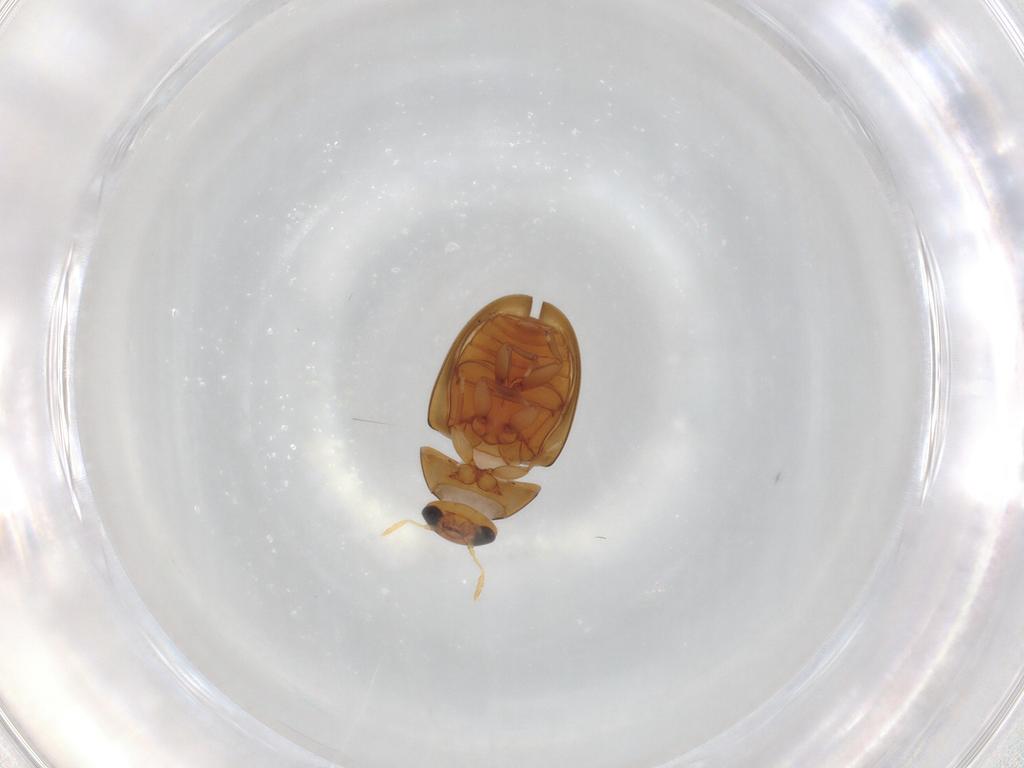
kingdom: Animalia
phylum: Arthropoda
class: Insecta
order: Coleoptera
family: Phalacridae
